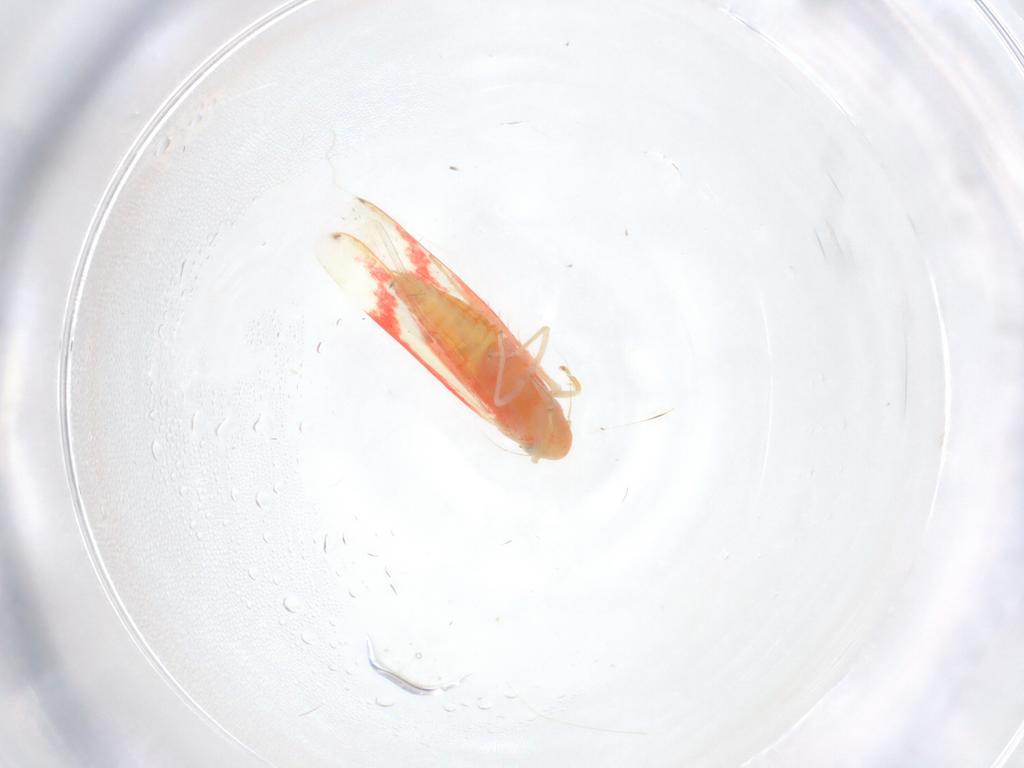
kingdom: Animalia
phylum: Arthropoda
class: Insecta
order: Hemiptera
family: Cicadellidae
